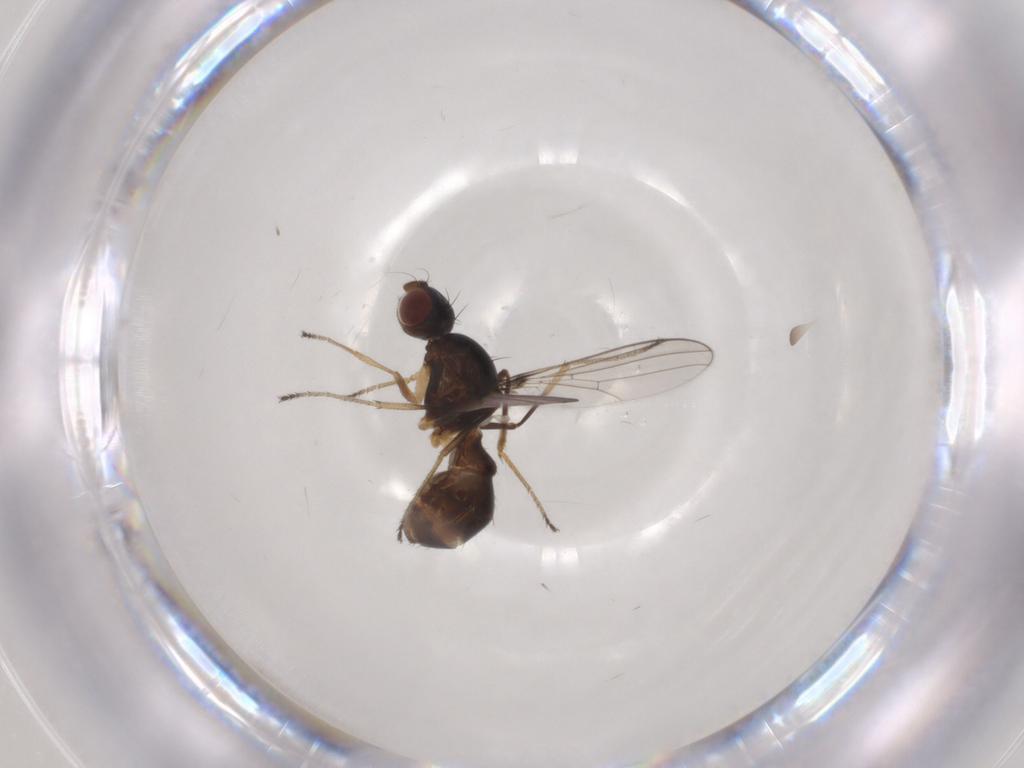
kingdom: Animalia
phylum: Arthropoda
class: Insecta
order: Diptera
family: Sepsidae
